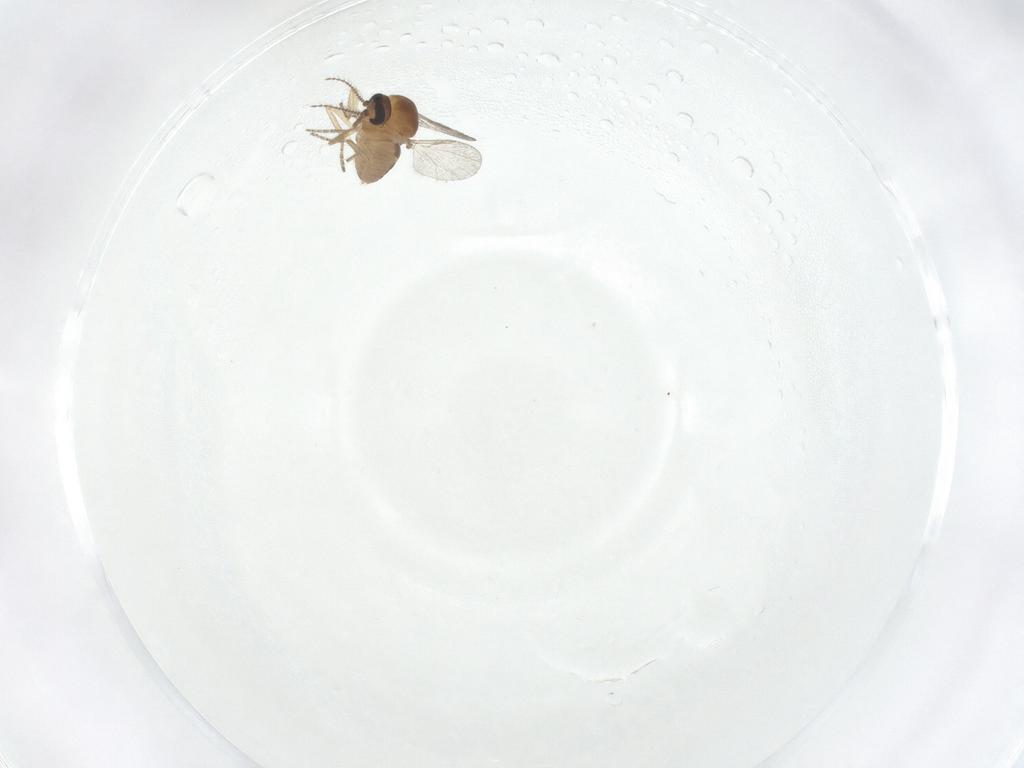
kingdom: Animalia
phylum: Arthropoda
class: Insecta
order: Diptera
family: Ceratopogonidae
